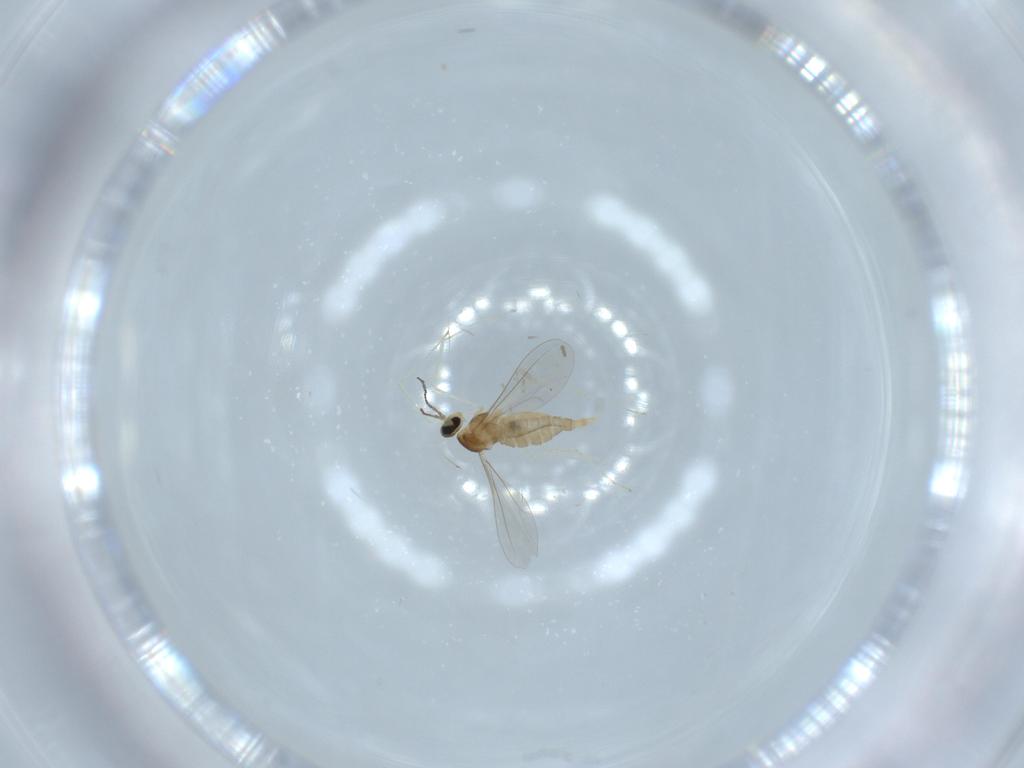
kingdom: Animalia
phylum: Arthropoda
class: Insecta
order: Diptera
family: Cecidomyiidae
